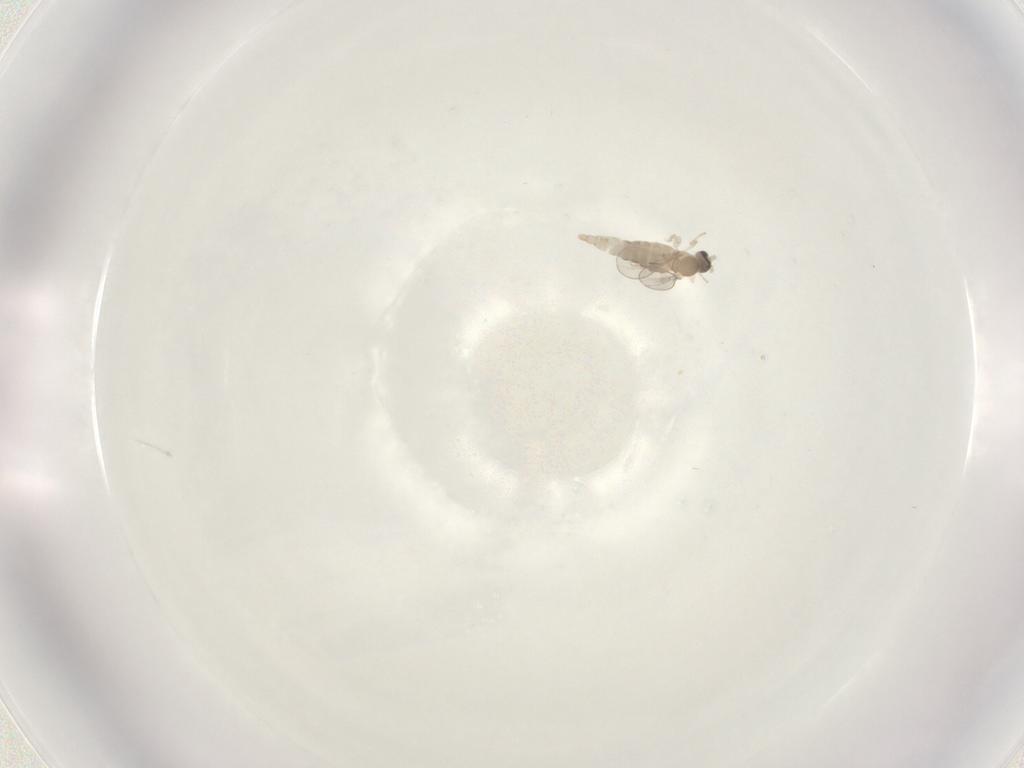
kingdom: Animalia
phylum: Arthropoda
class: Insecta
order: Diptera
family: Cecidomyiidae
